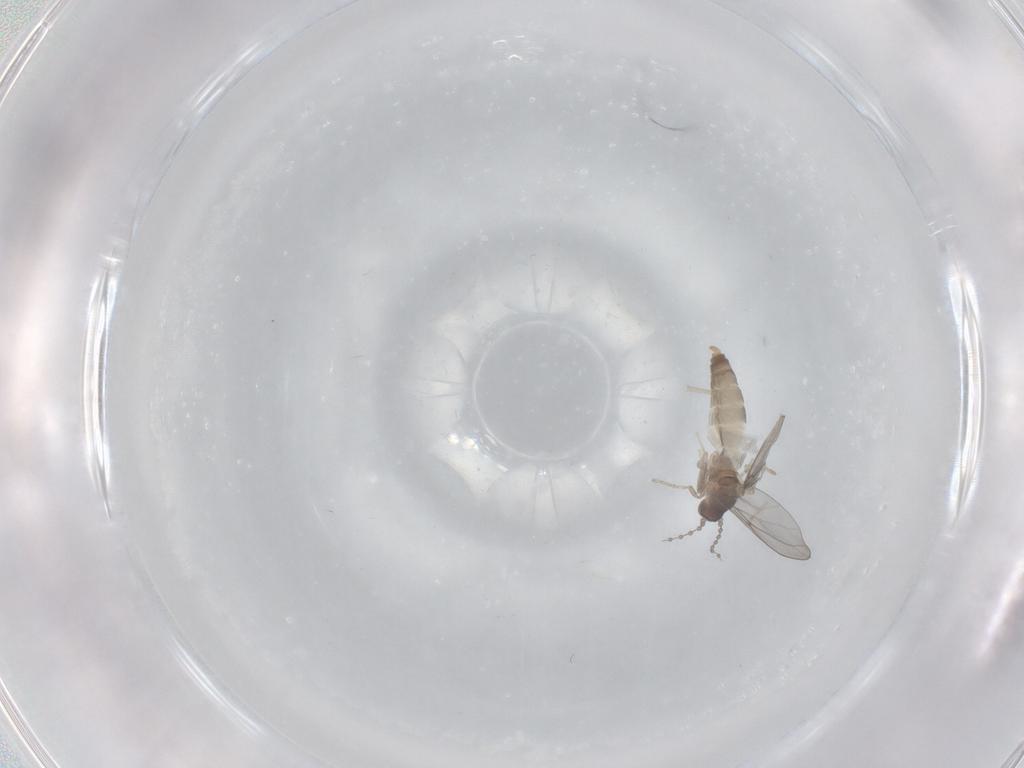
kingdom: Animalia
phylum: Arthropoda
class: Insecta
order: Diptera
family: Cecidomyiidae
